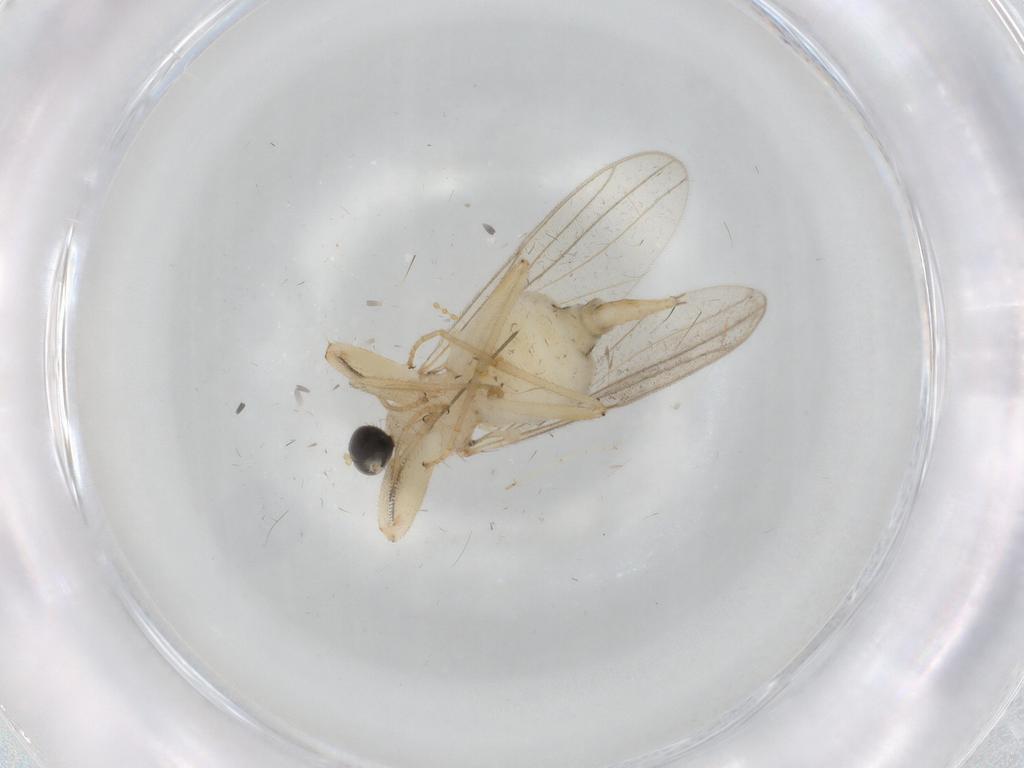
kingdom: Animalia
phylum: Arthropoda
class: Insecta
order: Diptera
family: Hybotidae
